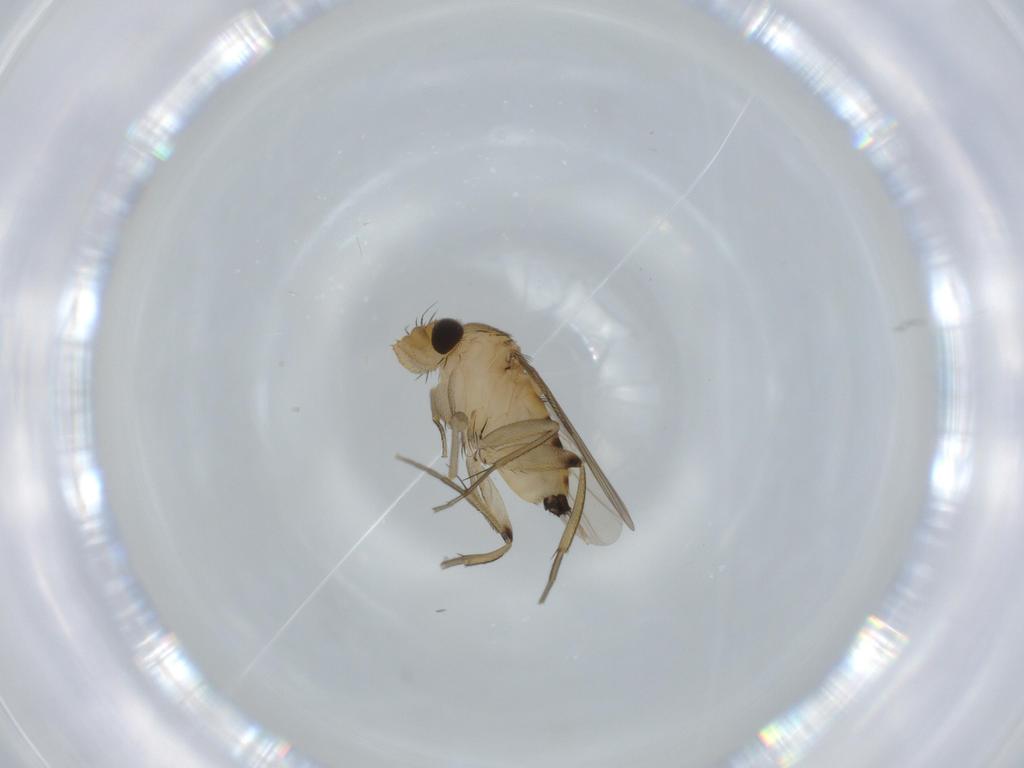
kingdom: Animalia
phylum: Arthropoda
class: Insecta
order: Diptera
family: Phoridae
